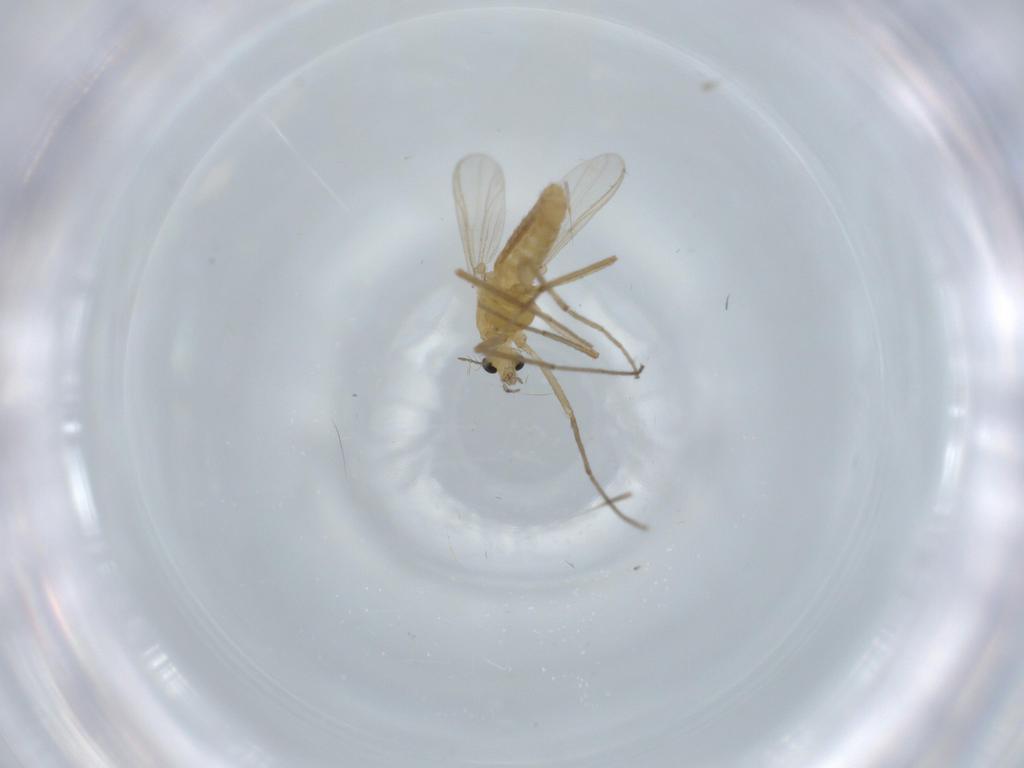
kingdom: Animalia
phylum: Arthropoda
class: Insecta
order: Diptera
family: Chironomidae
